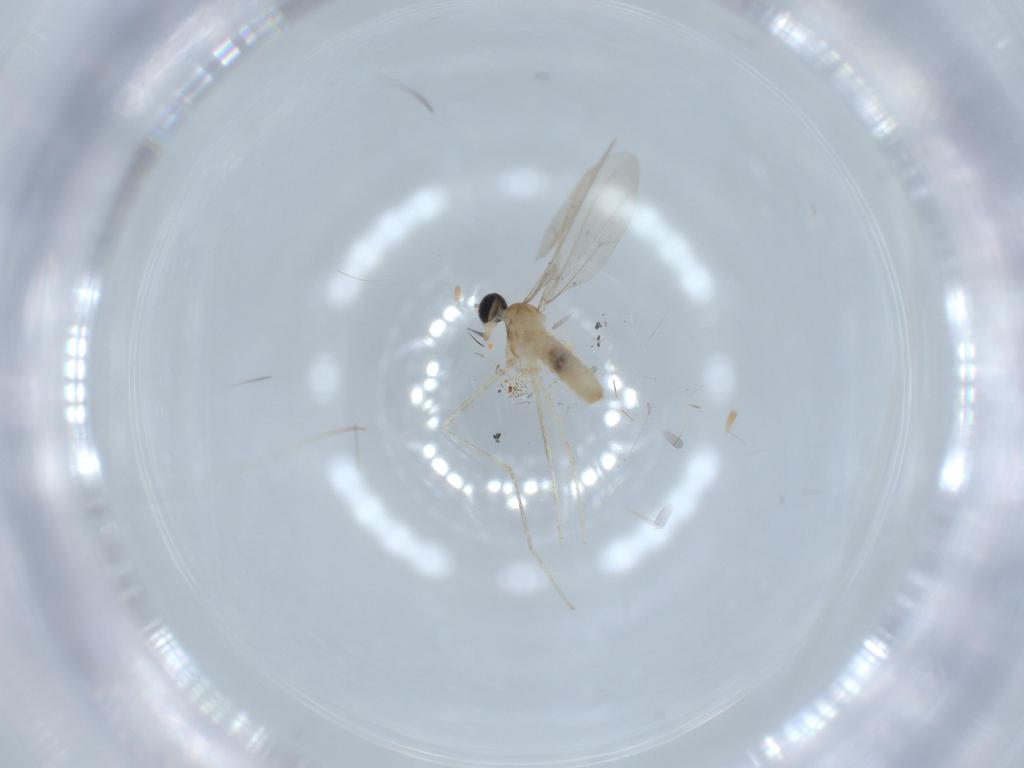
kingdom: Animalia
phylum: Arthropoda
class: Insecta
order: Diptera
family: Cecidomyiidae
